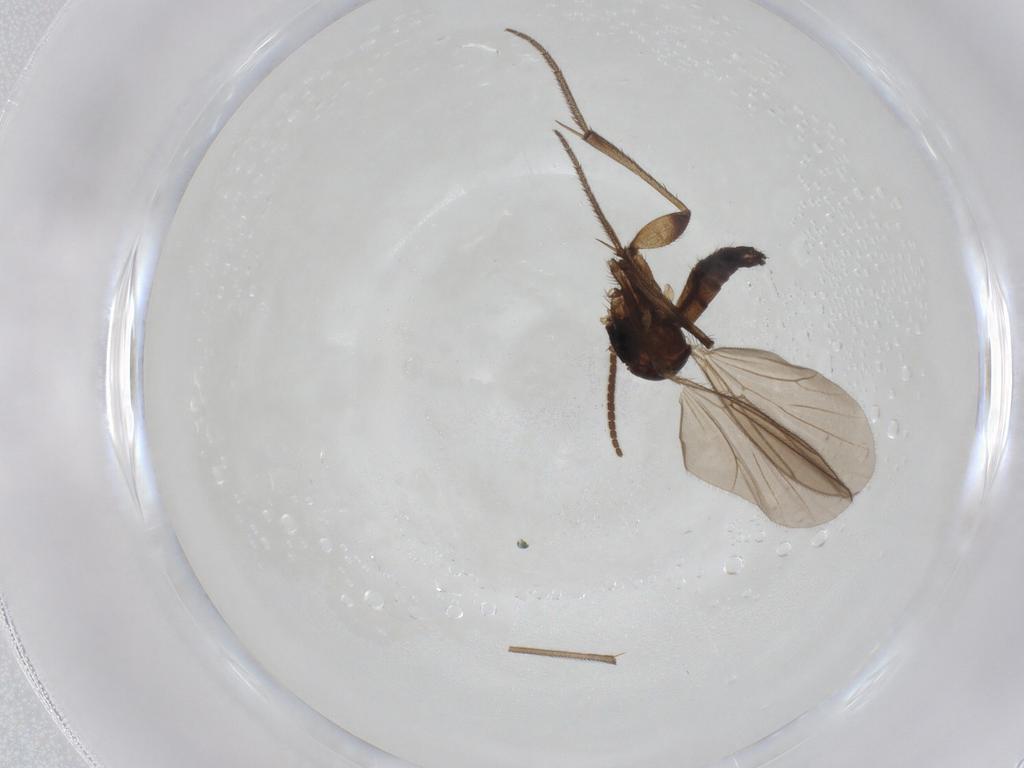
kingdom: Animalia
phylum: Arthropoda
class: Insecta
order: Diptera
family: Mycetophilidae
